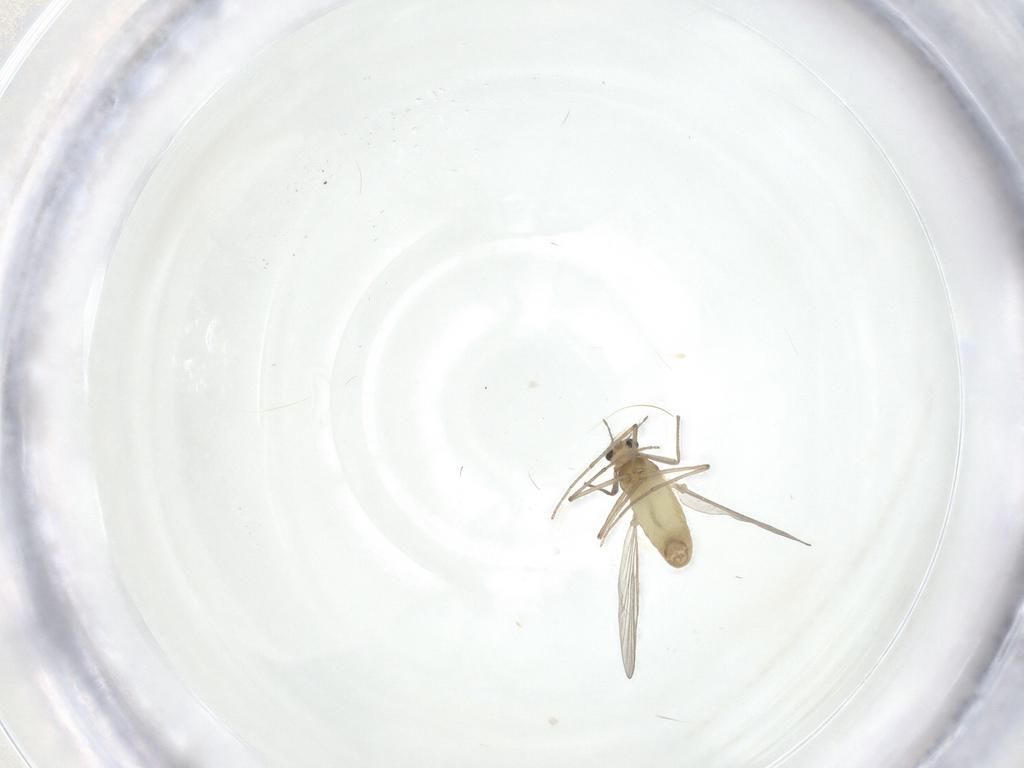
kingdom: Animalia
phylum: Arthropoda
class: Insecta
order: Diptera
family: Chironomidae
